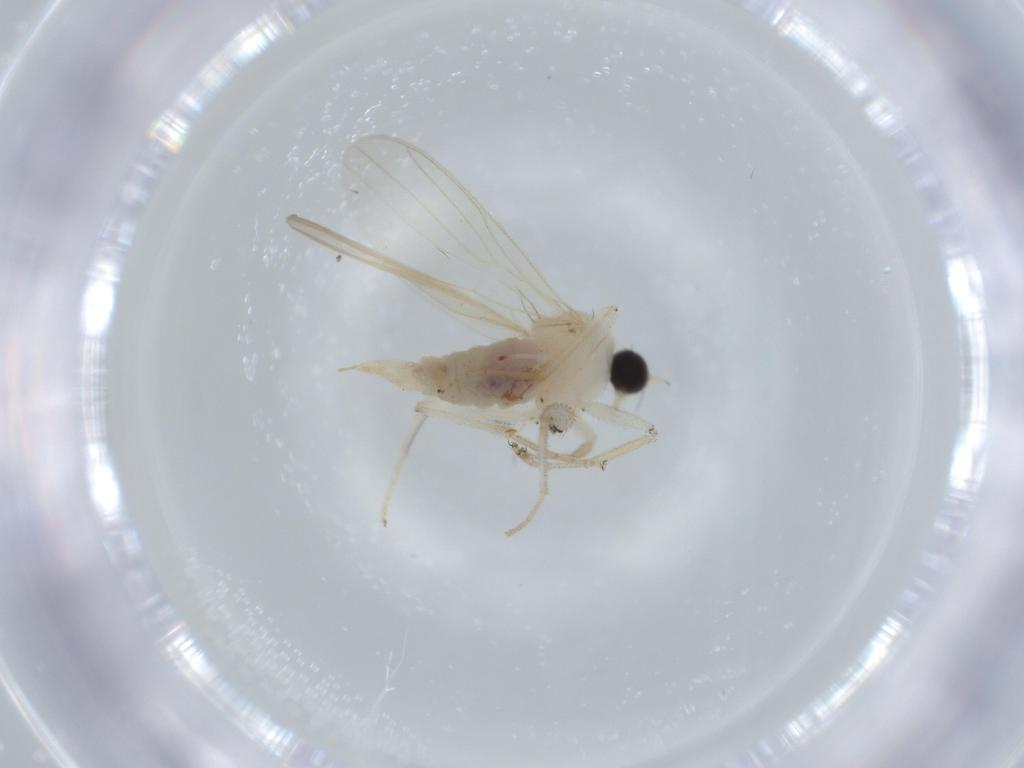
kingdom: Animalia
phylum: Arthropoda
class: Insecta
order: Diptera
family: Hybotidae
